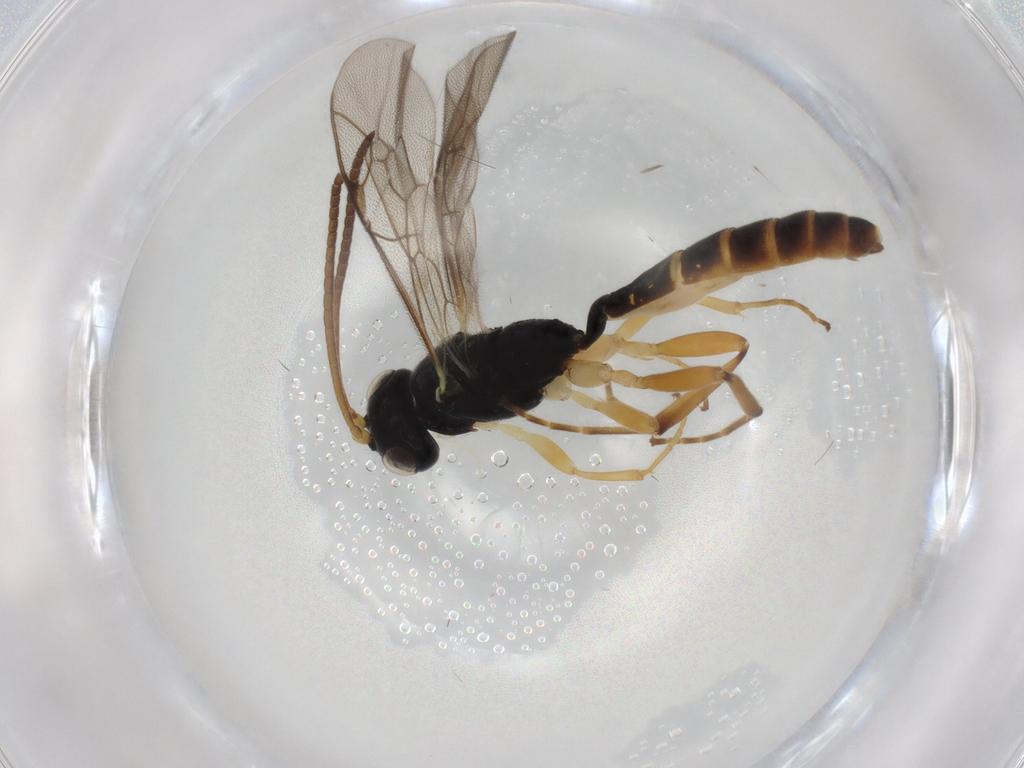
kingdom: Animalia
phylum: Arthropoda
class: Insecta
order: Hymenoptera
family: Ichneumonidae
